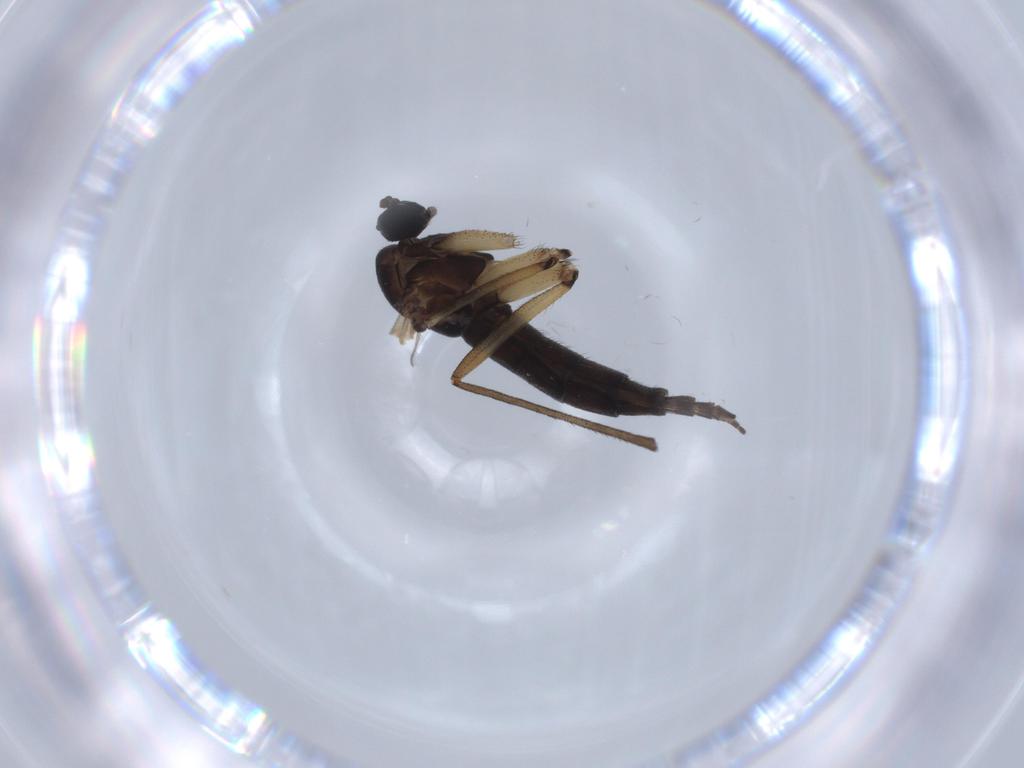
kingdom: Animalia
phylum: Arthropoda
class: Insecta
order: Diptera
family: Sciaridae
